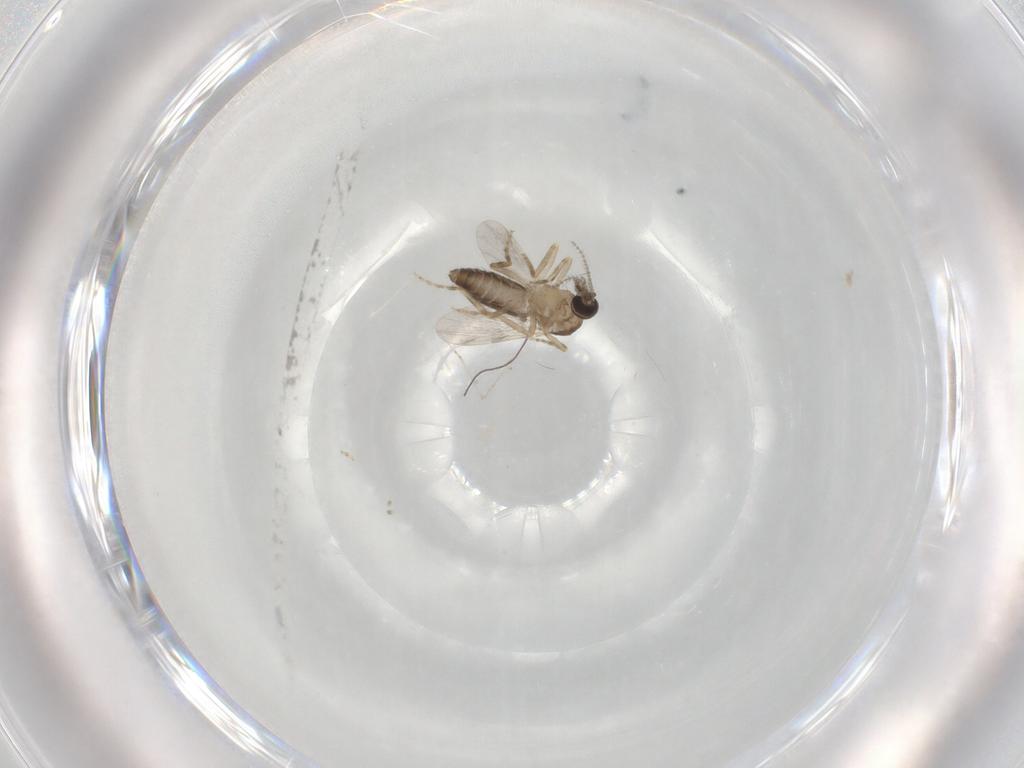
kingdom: Animalia
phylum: Arthropoda
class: Insecta
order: Diptera
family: Ceratopogonidae
